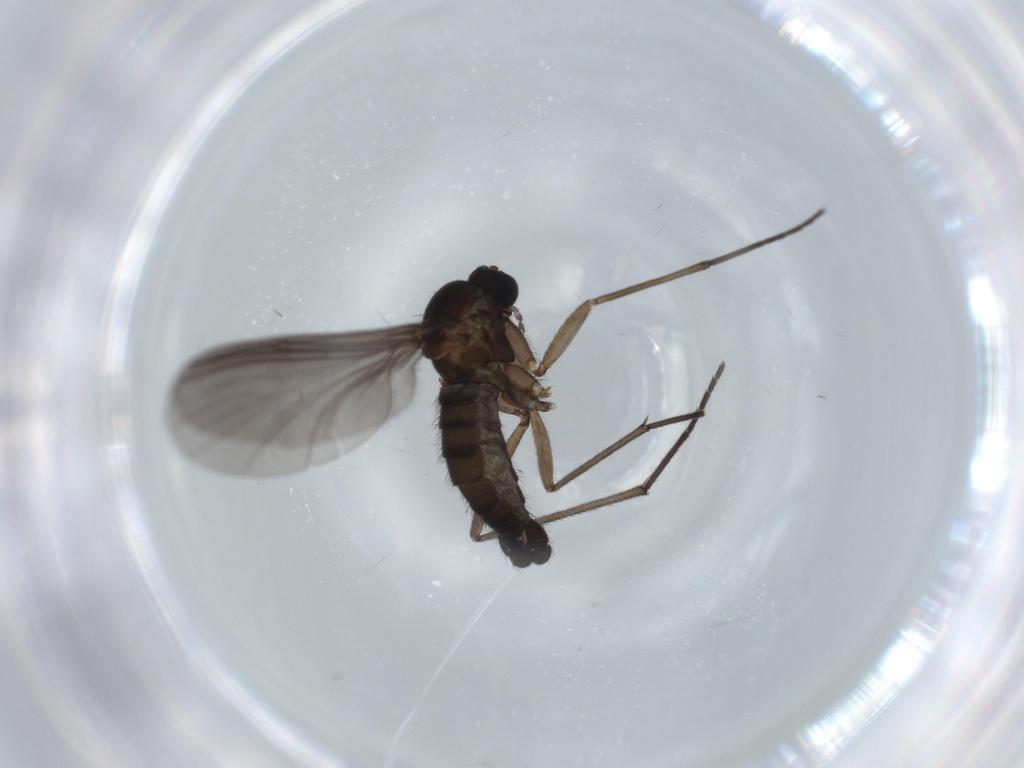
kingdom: Animalia
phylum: Arthropoda
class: Insecta
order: Diptera
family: Sciaridae
